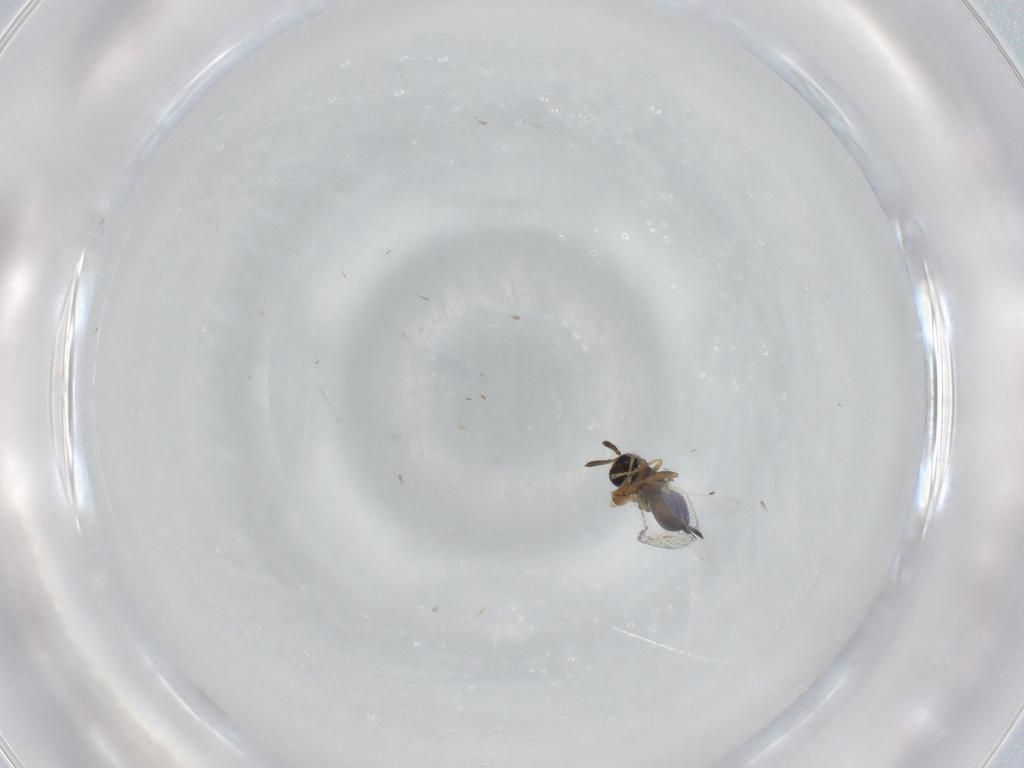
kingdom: Animalia
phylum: Arthropoda
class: Insecta
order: Hymenoptera
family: Torymidae
